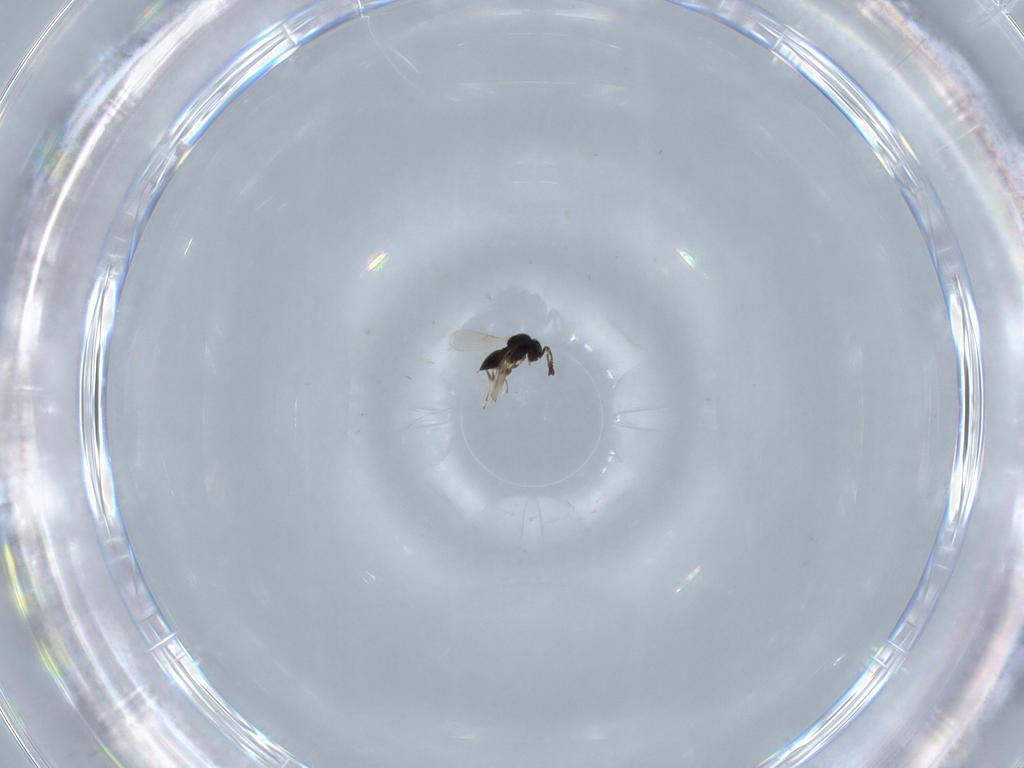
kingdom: Animalia
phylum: Arthropoda
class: Insecta
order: Hymenoptera
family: Scelionidae
